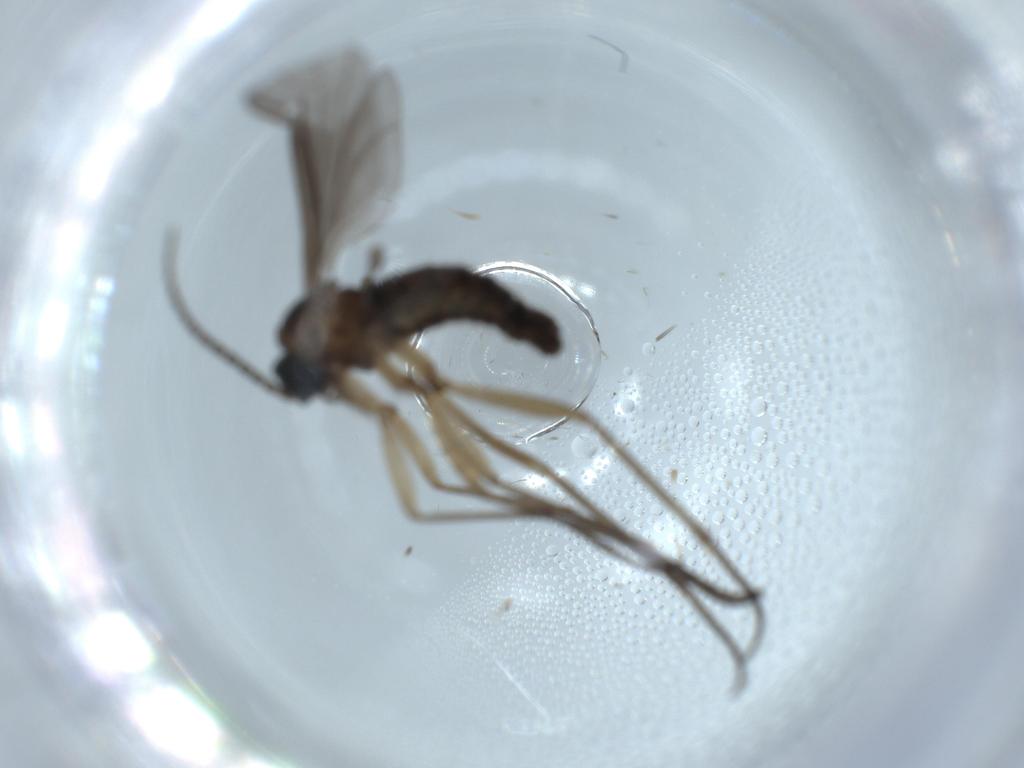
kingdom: Animalia
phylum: Arthropoda
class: Insecta
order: Diptera
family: Sciaridae
